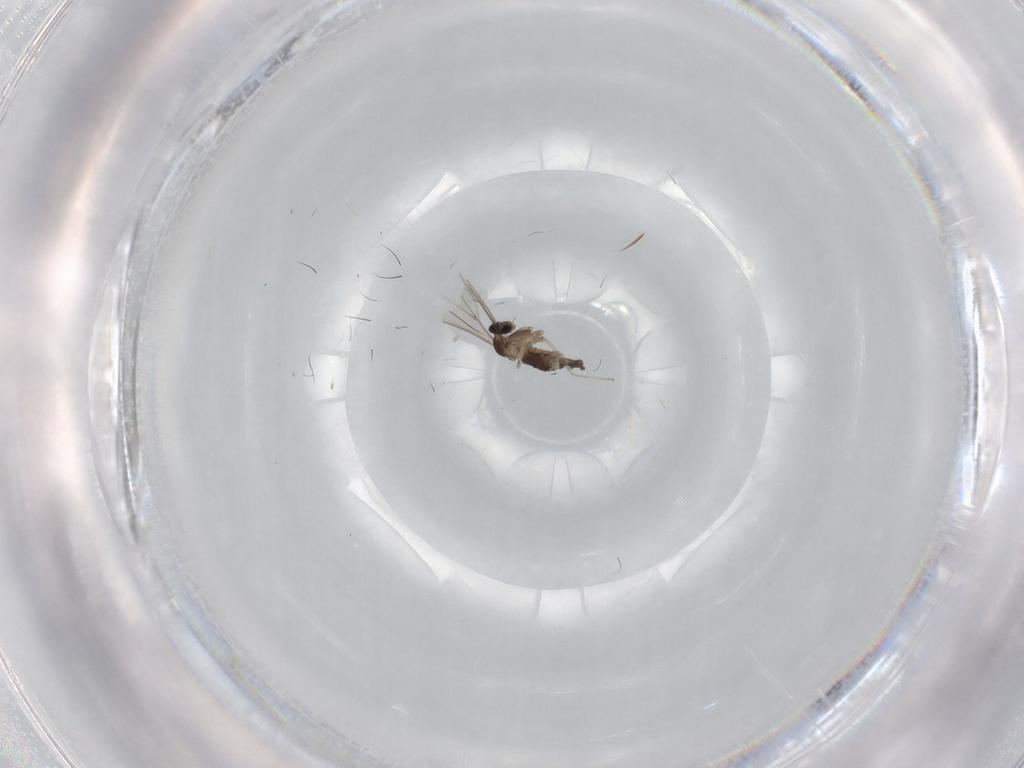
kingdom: Animalia
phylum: Arthropoda
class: Insecta
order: Diptera
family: Cecidomyiidae
